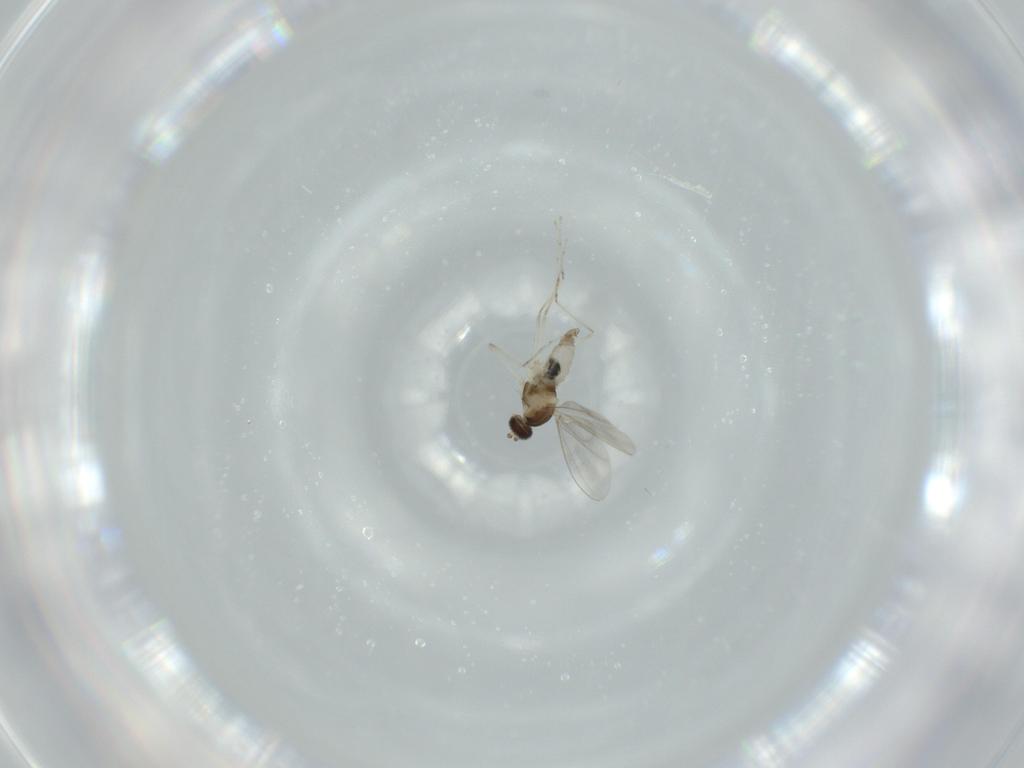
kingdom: Animalia
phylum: Arthropoda
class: Insecta
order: Diptera
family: Cecidomyiidae
